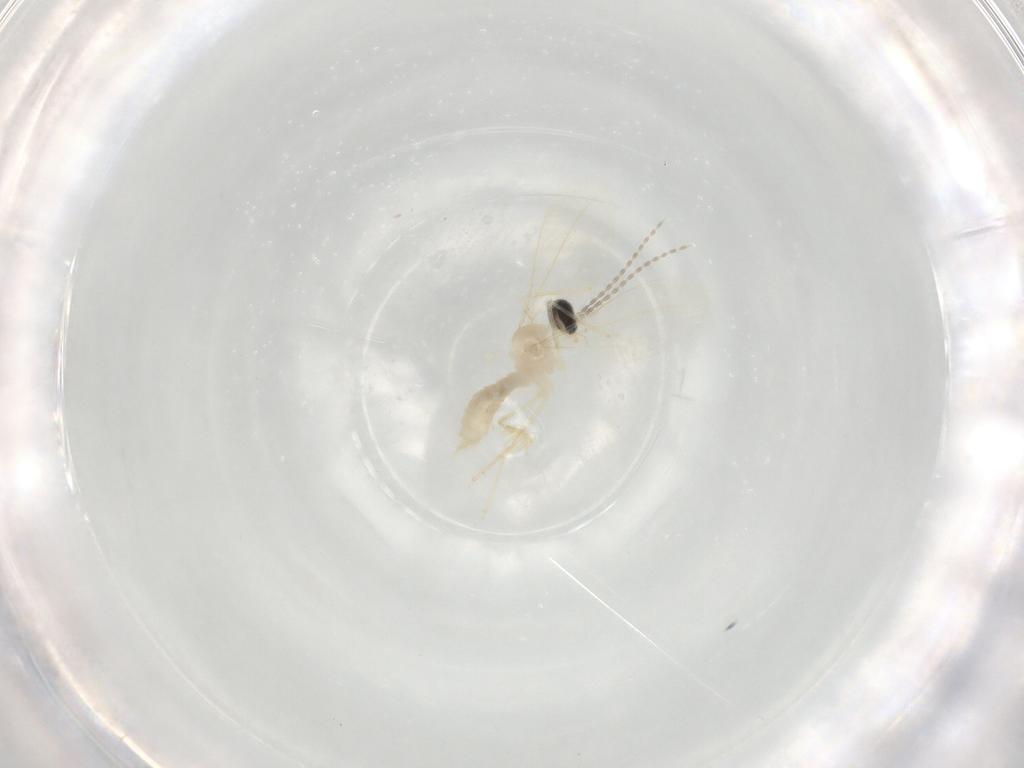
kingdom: Animalia
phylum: Arthropoda
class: Insecta
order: Diptera
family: Cecidomyiidae
